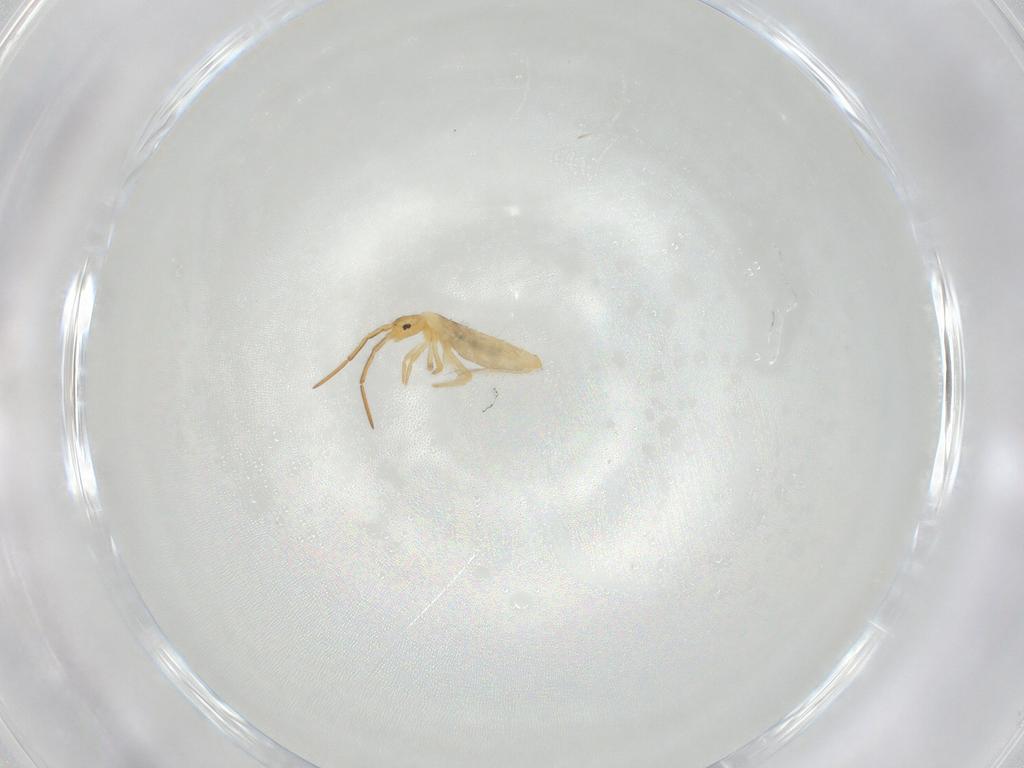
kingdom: Animalia
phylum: Arthropoda
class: Collembola
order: Entomobryomorpha
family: Entomobryidae
